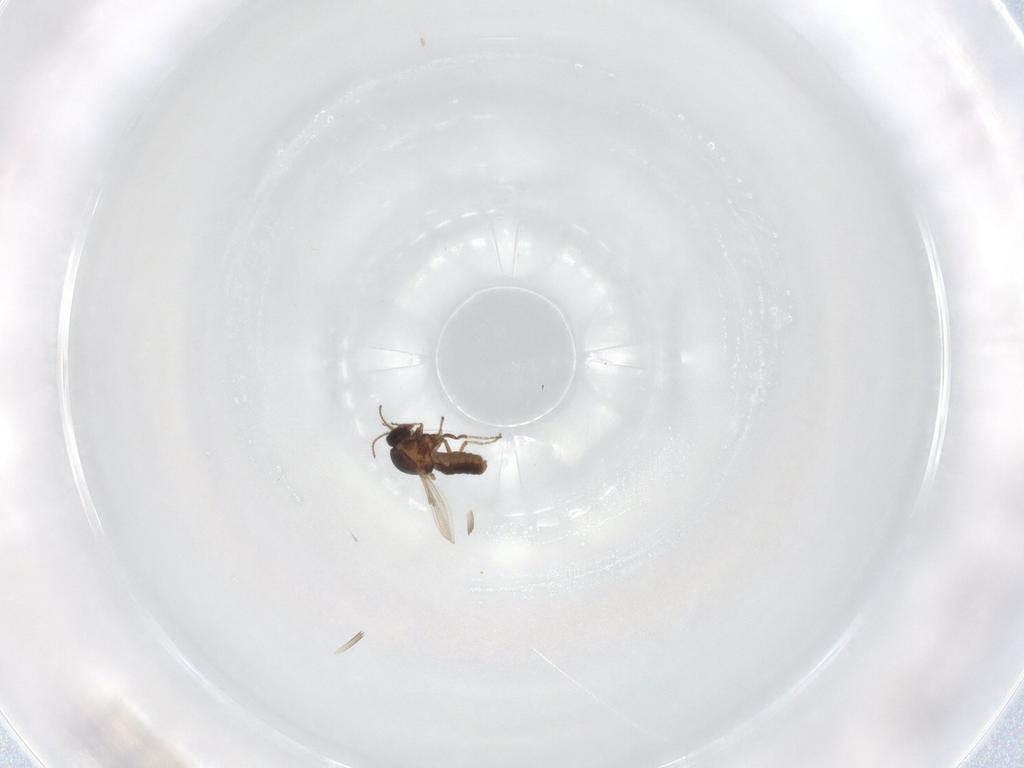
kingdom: Animalia
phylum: Arthropoda
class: Insecta
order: Diptera
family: Ceratopogonidae
